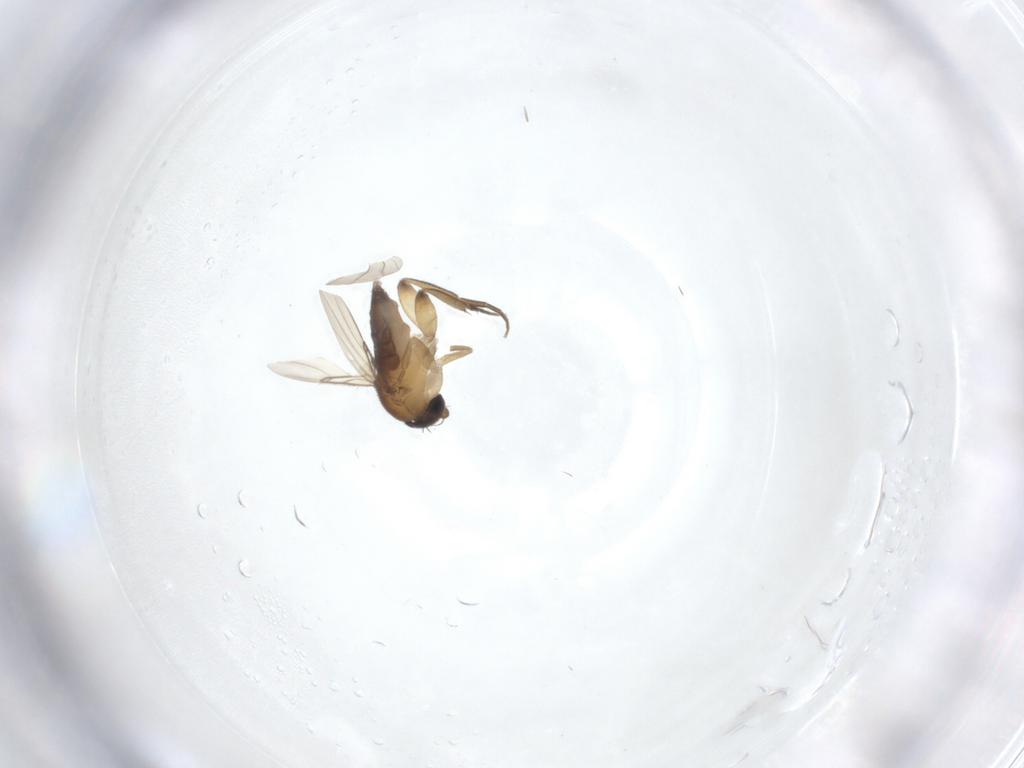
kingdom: Animalia
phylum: Arthropoda
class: Insecta
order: Diptera
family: Phoridae
